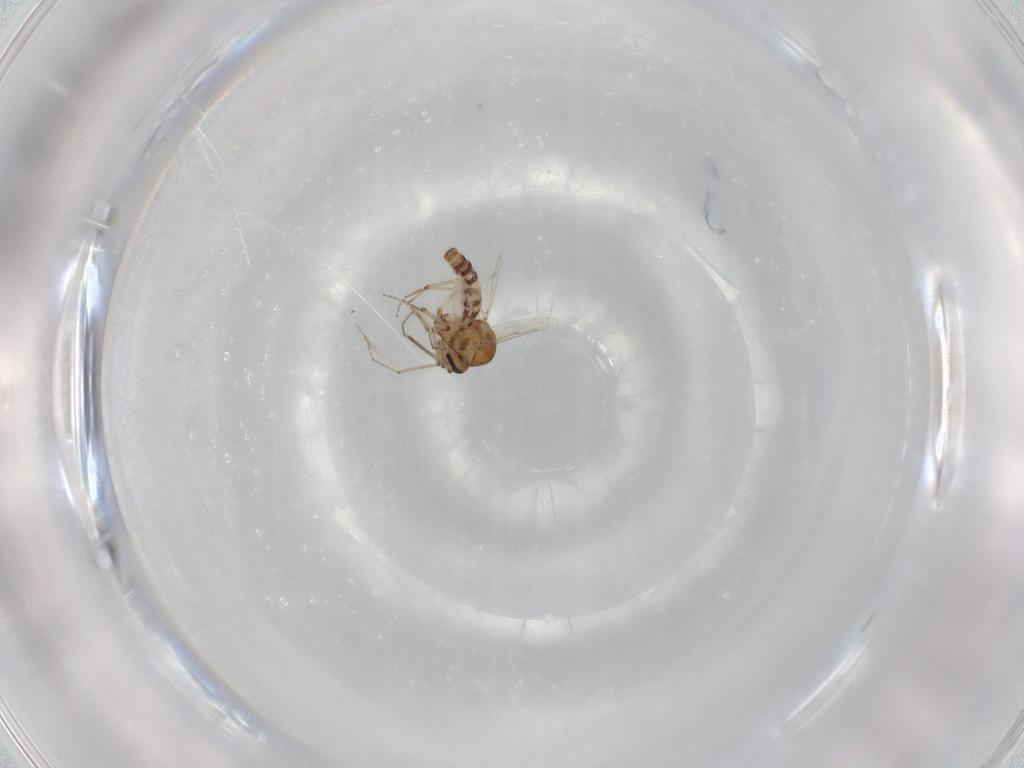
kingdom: Animalia
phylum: Arthropoda
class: Insecta
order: Diptera
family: Ceratopogonidae
